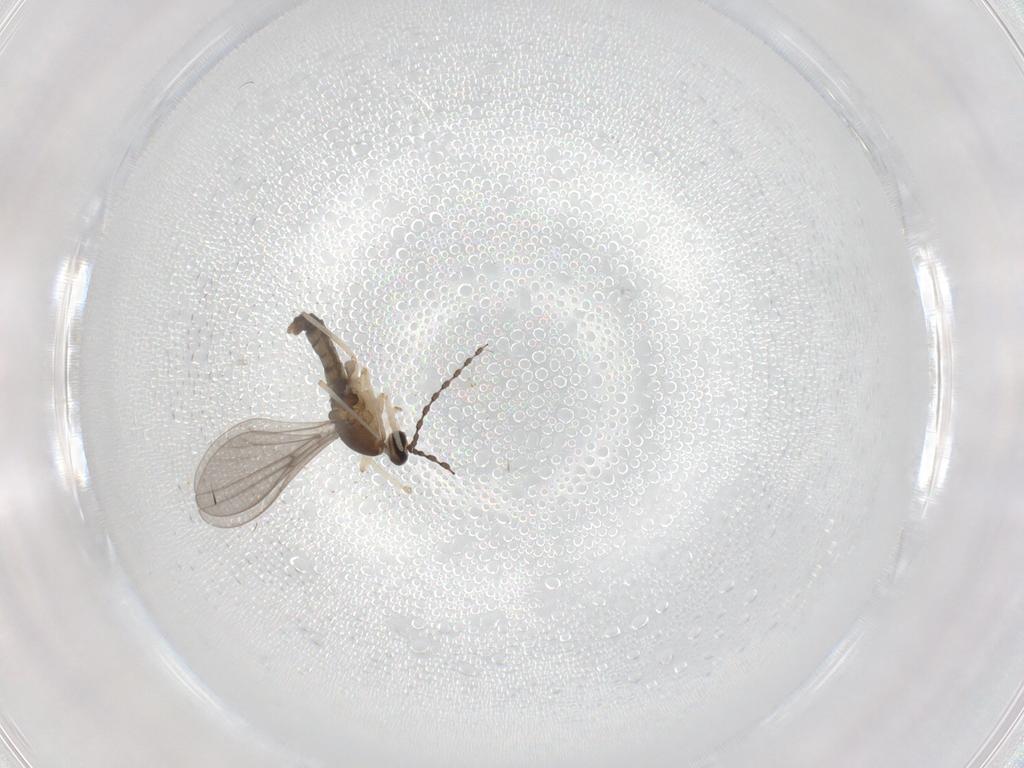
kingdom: Animalia
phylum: Arthropoda
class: Insecta
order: Diptera
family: Cecidomyiidae
